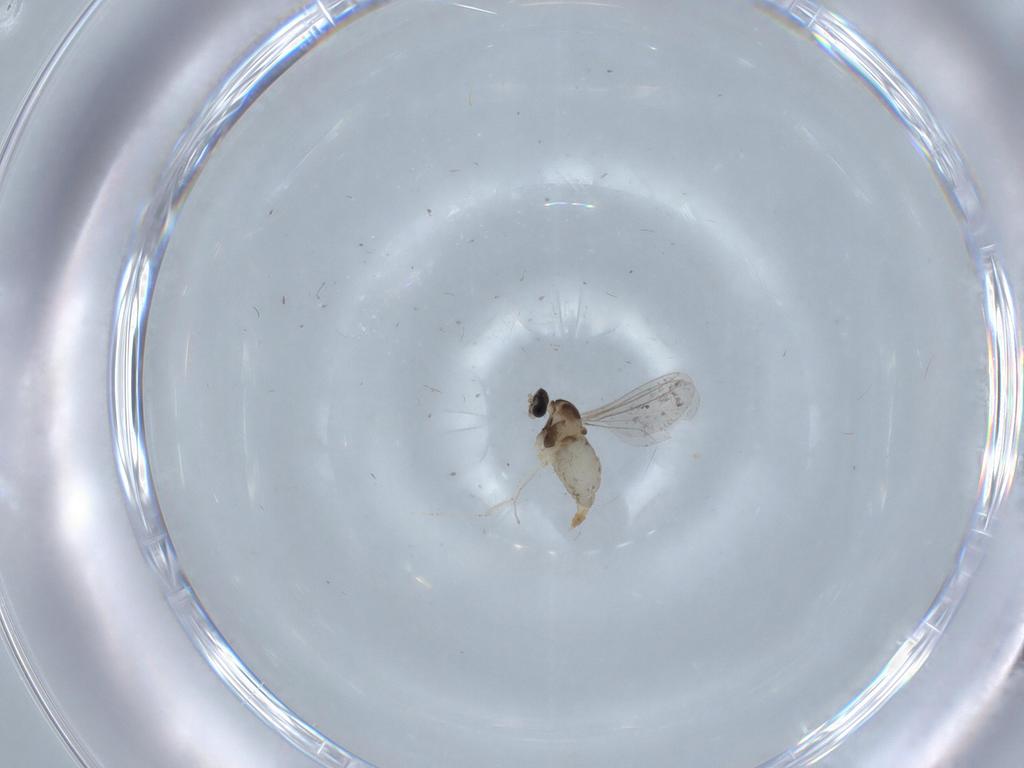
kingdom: Animalia
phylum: Arthropoda
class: Insecta
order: Diptera
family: Cecidomyiidae
